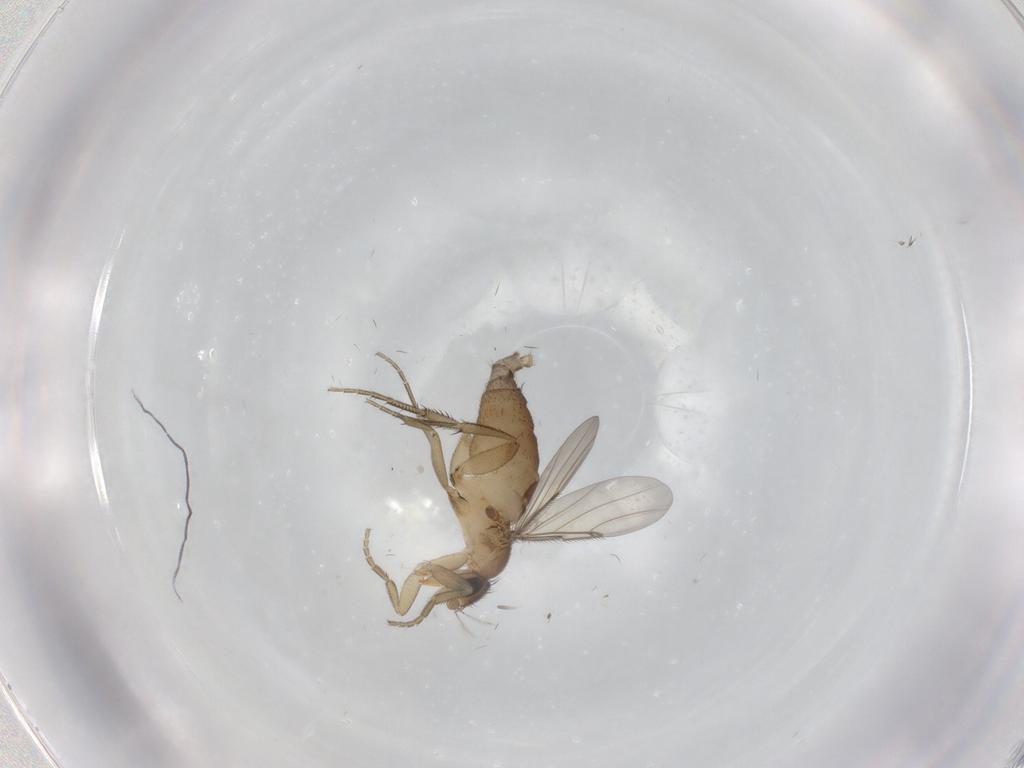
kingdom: Animalia
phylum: Arthropoda
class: Insecta
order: Diptera
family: Phoridae
